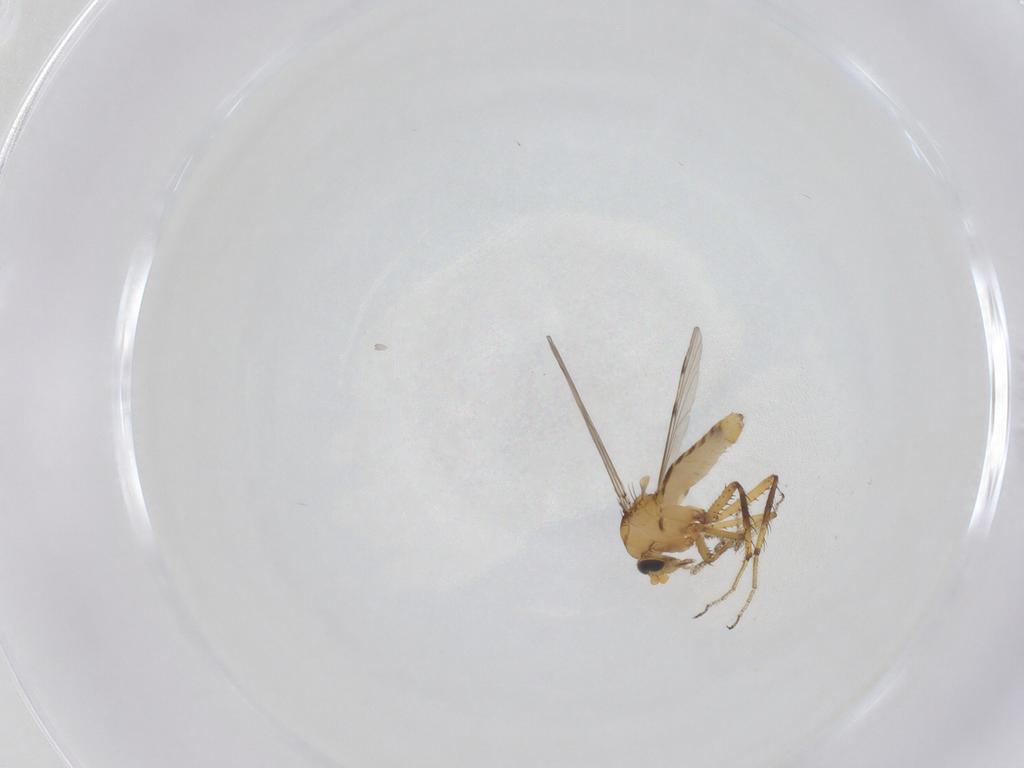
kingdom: Animalia
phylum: Arthropoda
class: Insecta
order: Diptera
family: Ceratopogonidae
